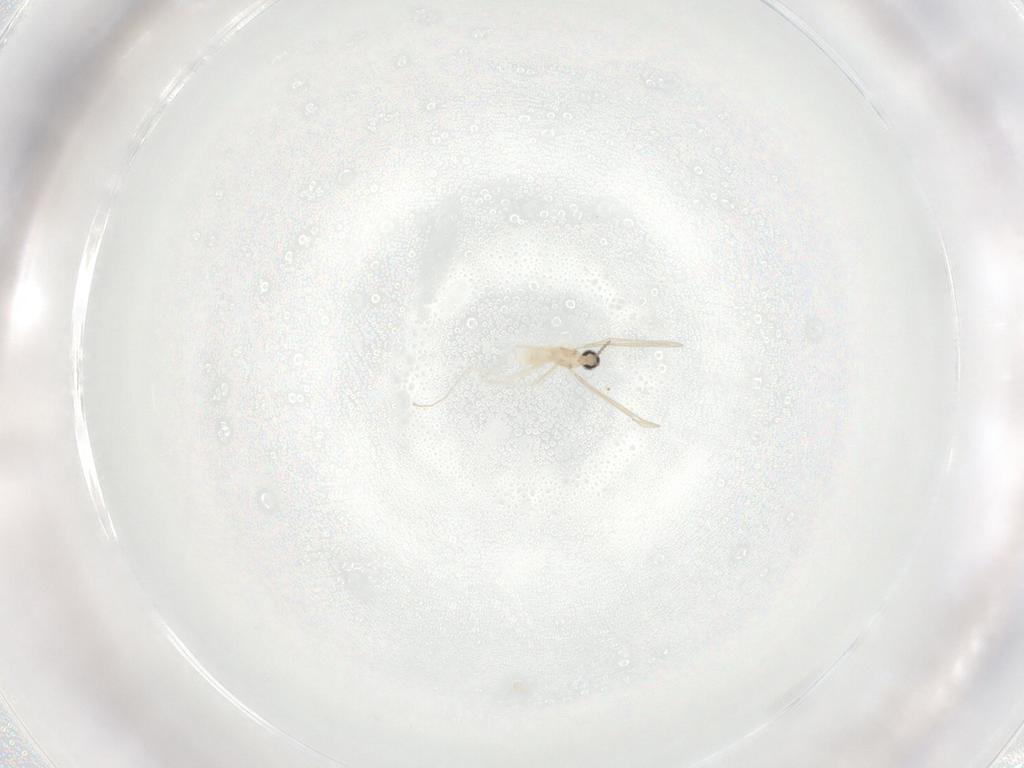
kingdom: Animalia
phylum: Arthropoda
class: Insecta
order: Diptera
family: Cecidomyiidae
